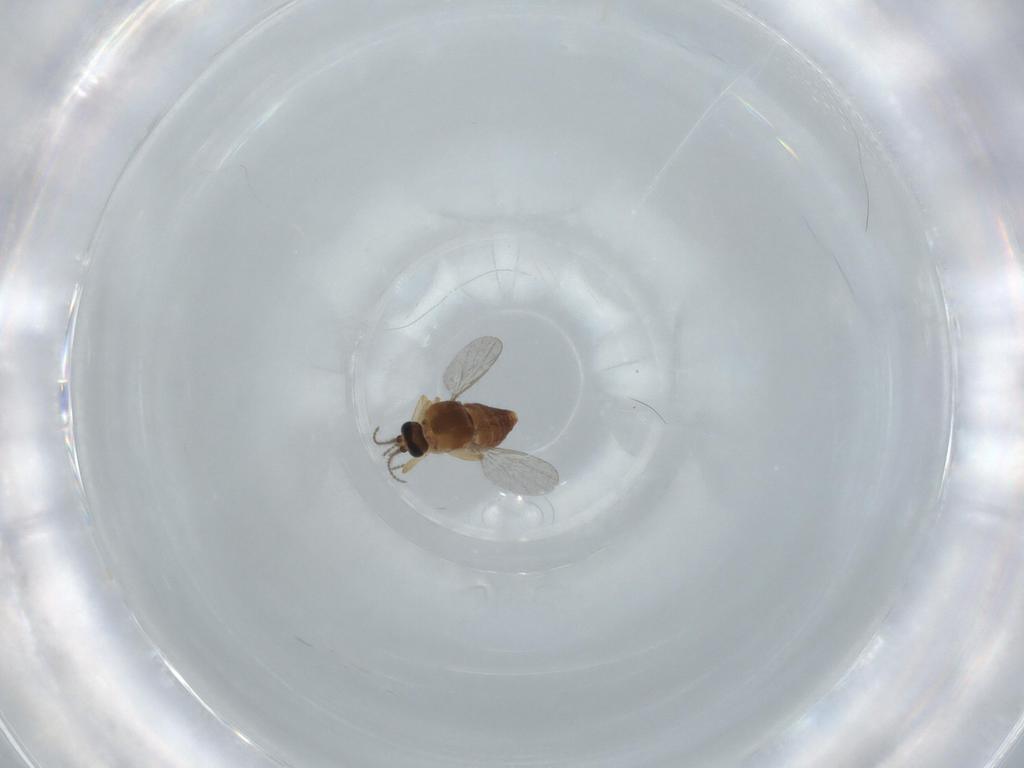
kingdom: Animalia
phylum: Arthropoda
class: Insecta
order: Diptera
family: Ceratopogonidae
